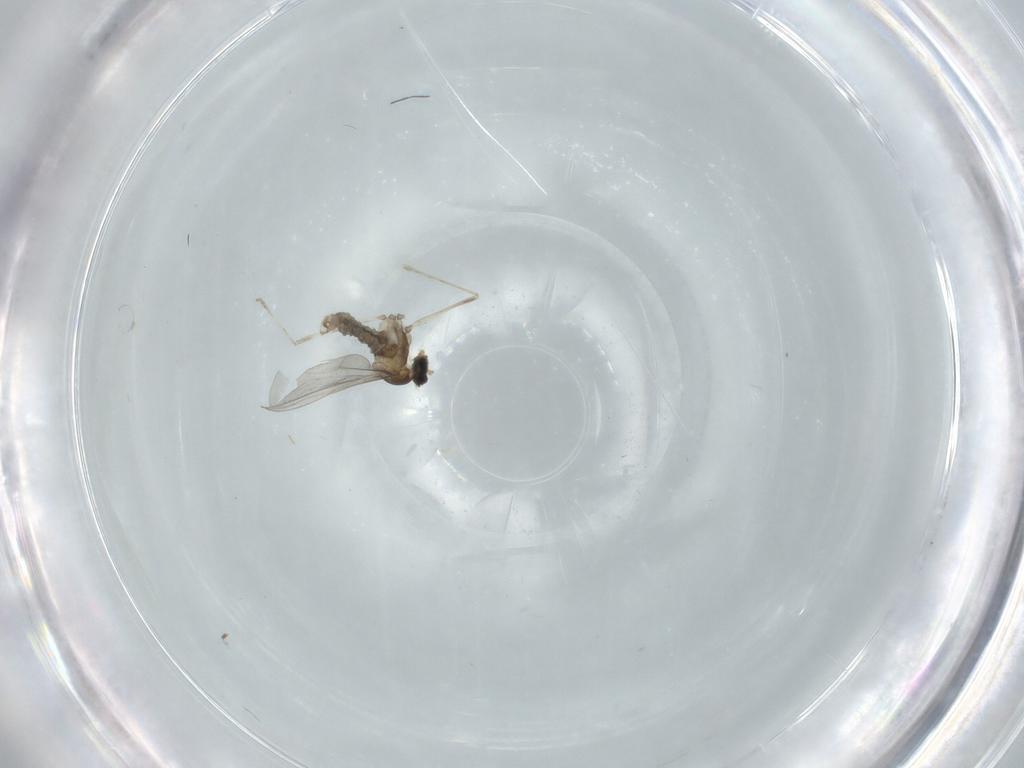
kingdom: Animalia
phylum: Arthropoda
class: Insecta
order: Diptera
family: Cecidomyiidae
